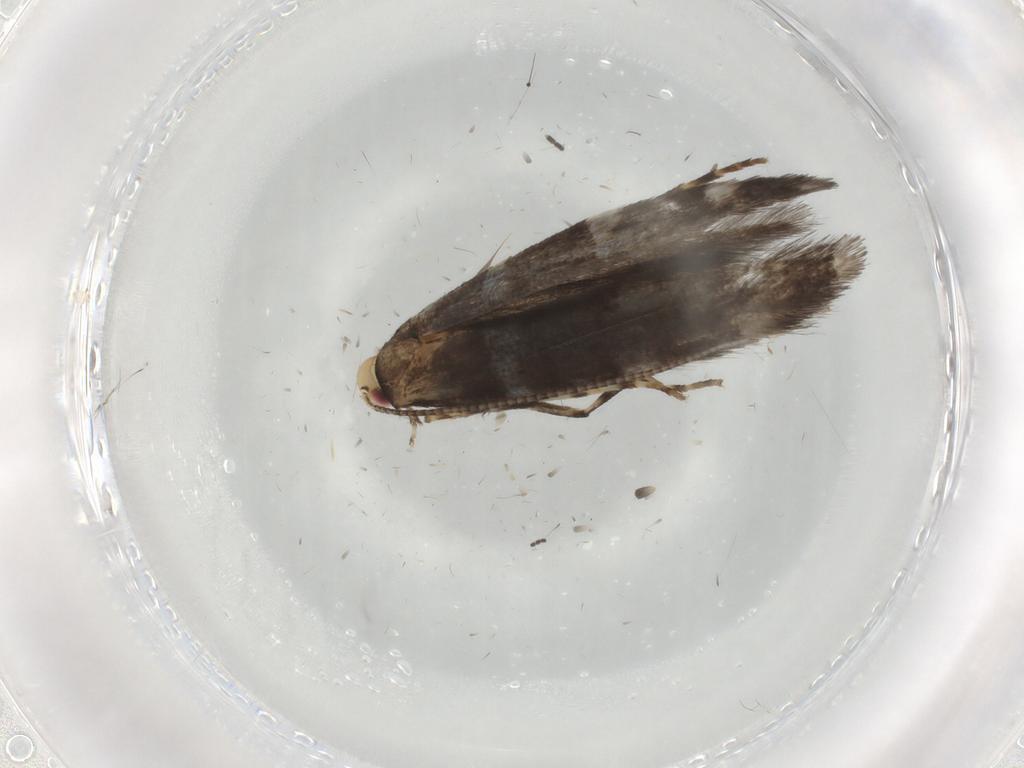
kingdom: Animalia
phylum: Arthropoda
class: Insecta
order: Lepidoptera
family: Gracillariidae
